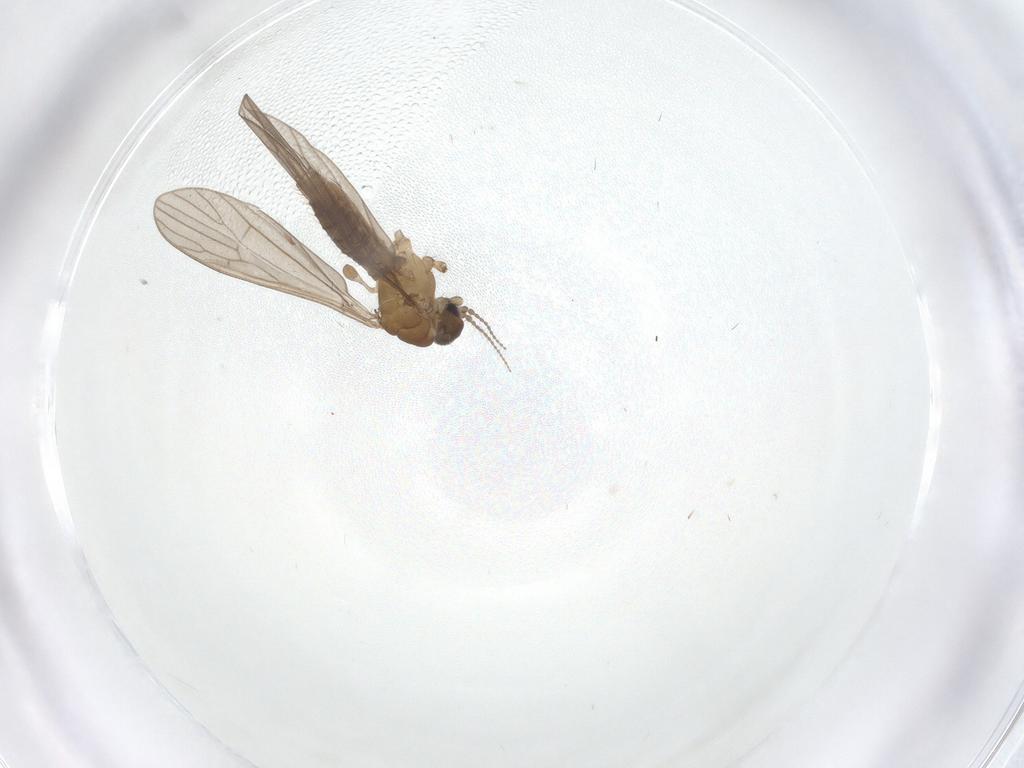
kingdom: Animalia
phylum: Arthropoda
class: Insecta
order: Diptera
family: Limoniidae
